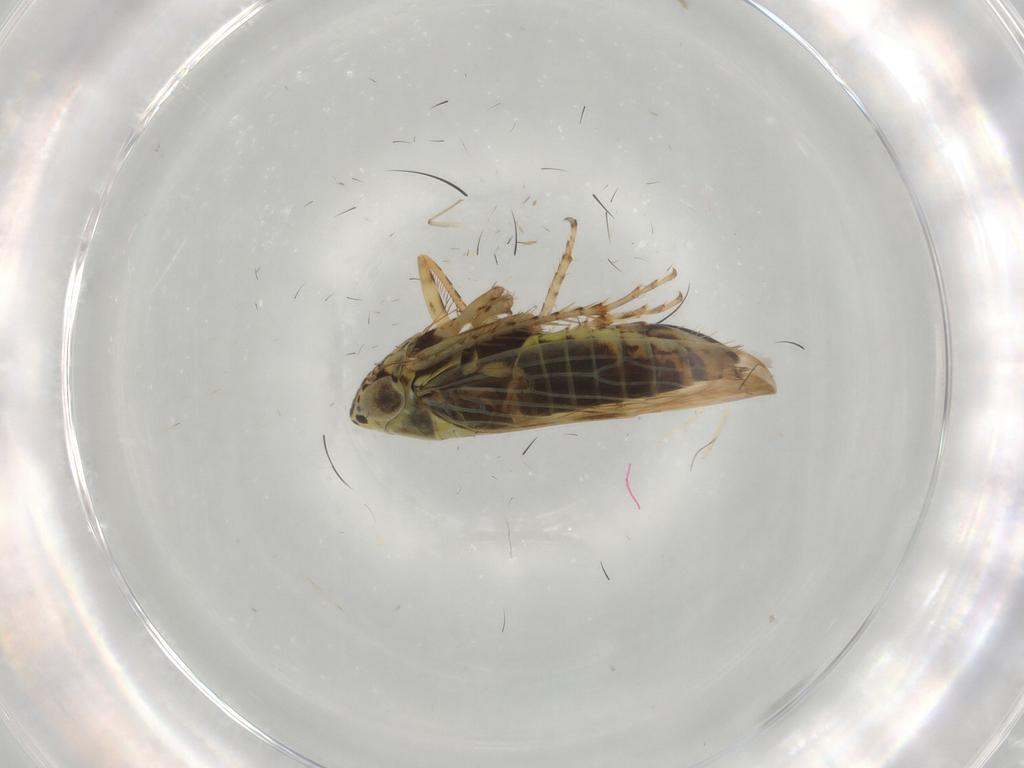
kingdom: Animalia
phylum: Arthropoda
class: Insecta
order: Hemiptera
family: Cicadellidae
